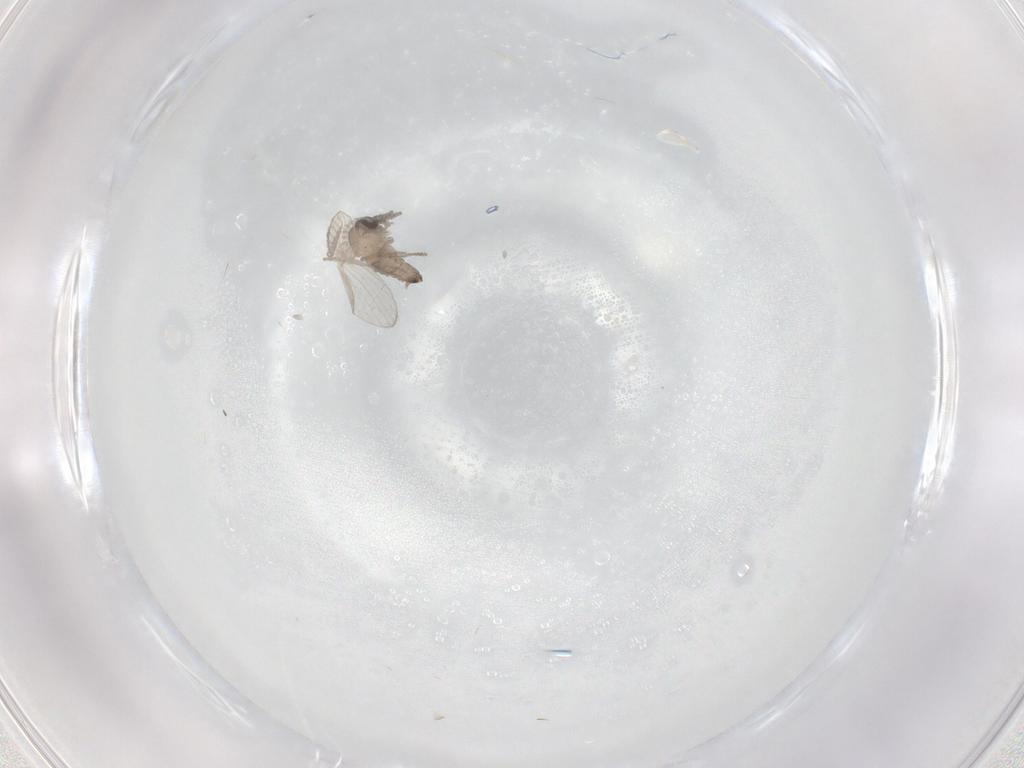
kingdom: Animalia
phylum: Arthropoda
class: Insecta
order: Diptera
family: Psychodidae
